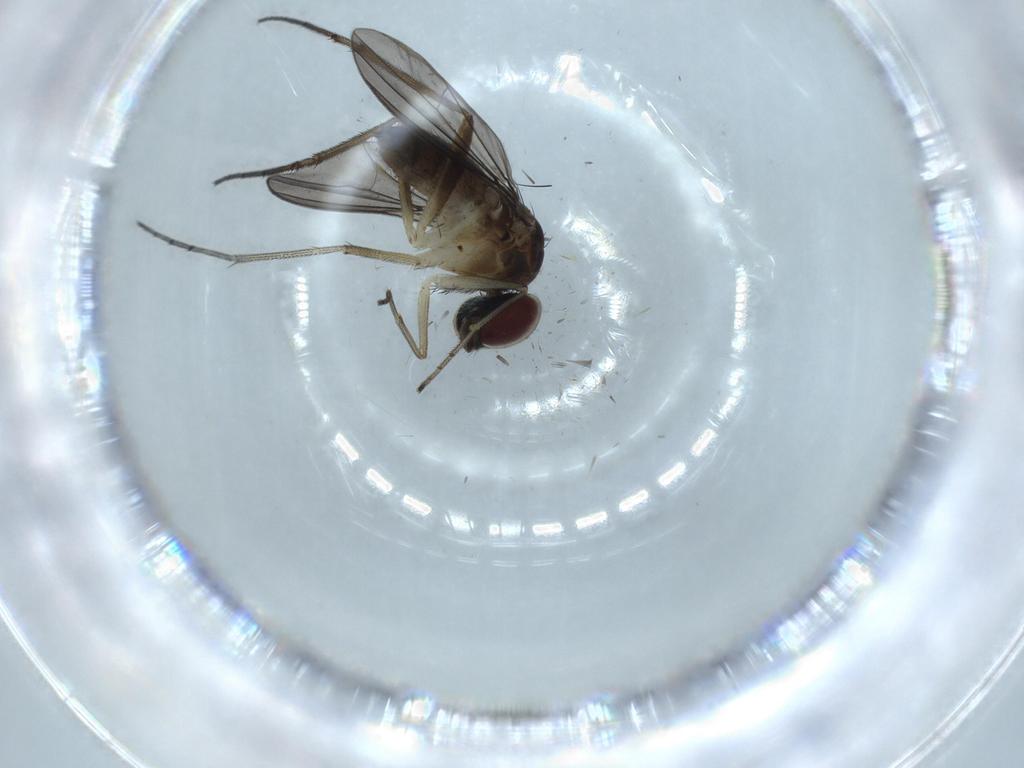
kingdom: Animalia
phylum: Arthropoda
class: Insecta
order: Diptera
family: Dolichopodidae
